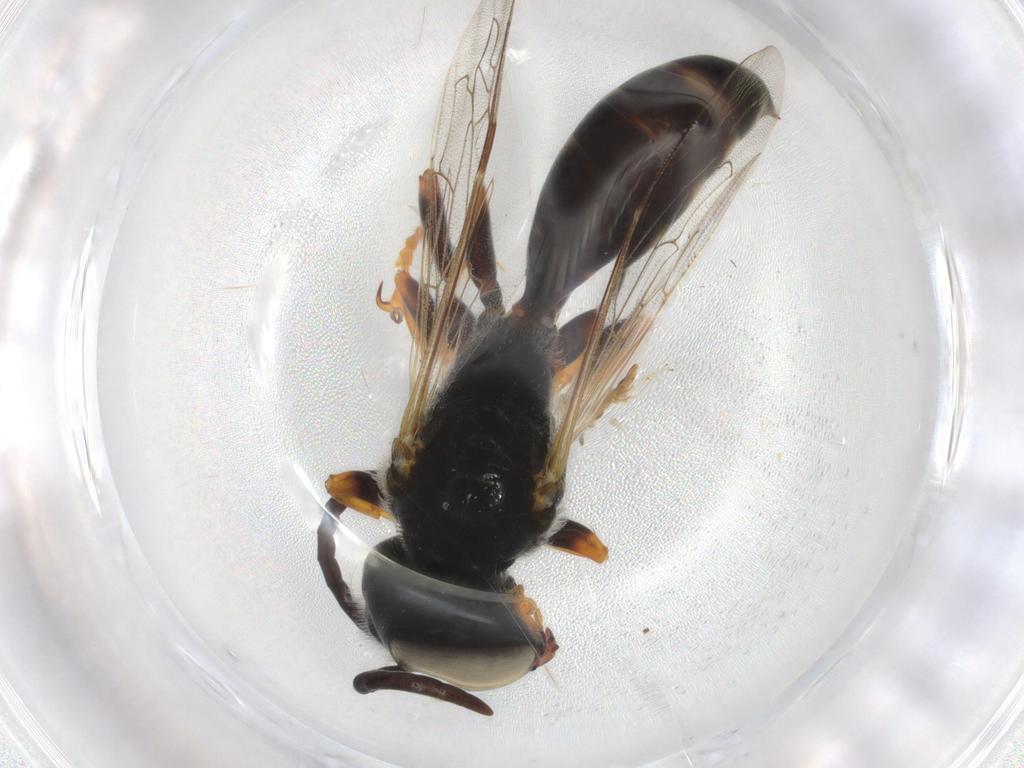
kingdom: Animalia
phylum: Arthropoda
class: Insecta
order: Hymenoptera
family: Crabronidae
